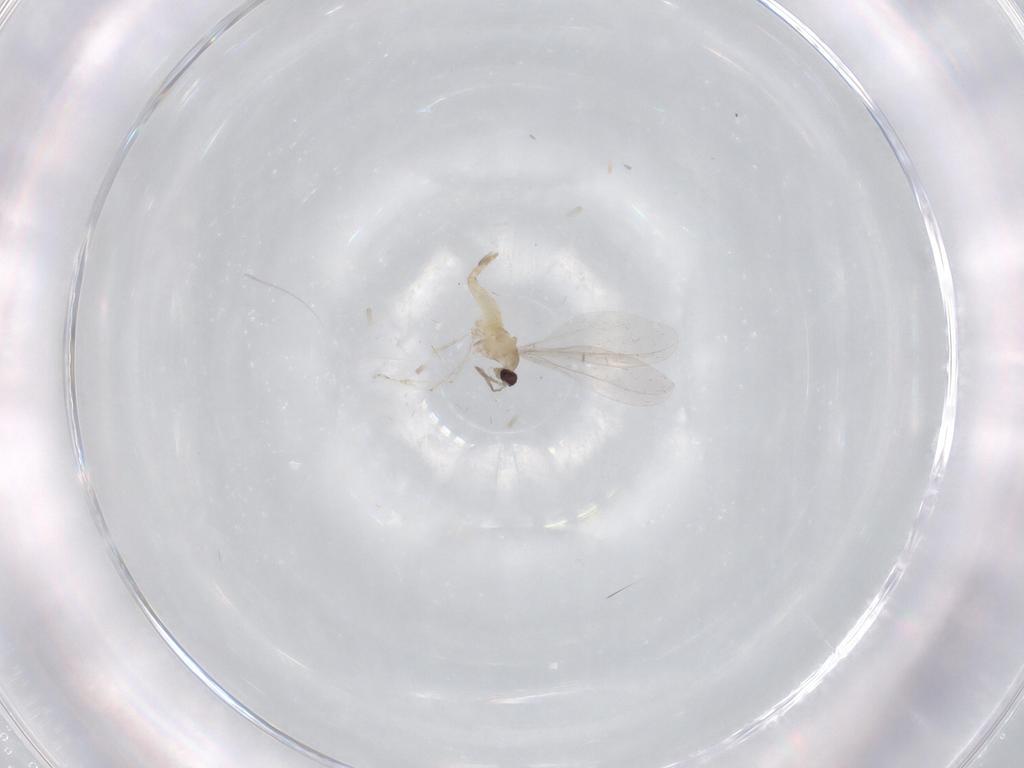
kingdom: Animalia
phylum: Arthropoda
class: Insecta
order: Diptera
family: Cecidomyiidae
